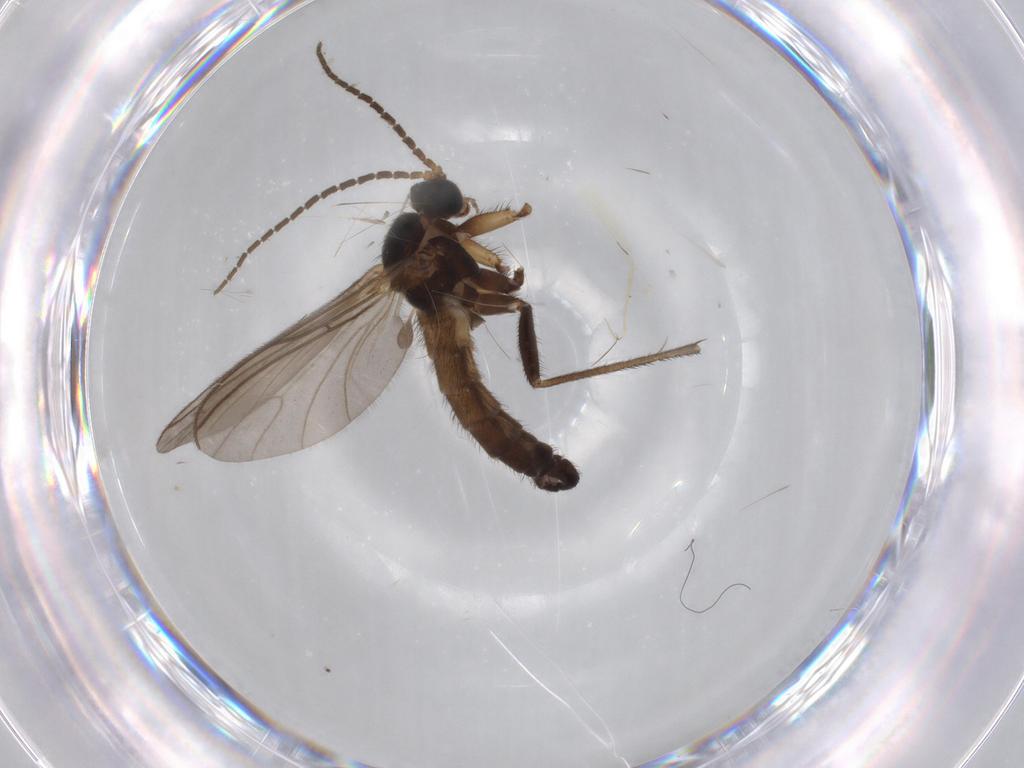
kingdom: Animalia
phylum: Arthropoda
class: Insecta
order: Diptera
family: Sciaridae
